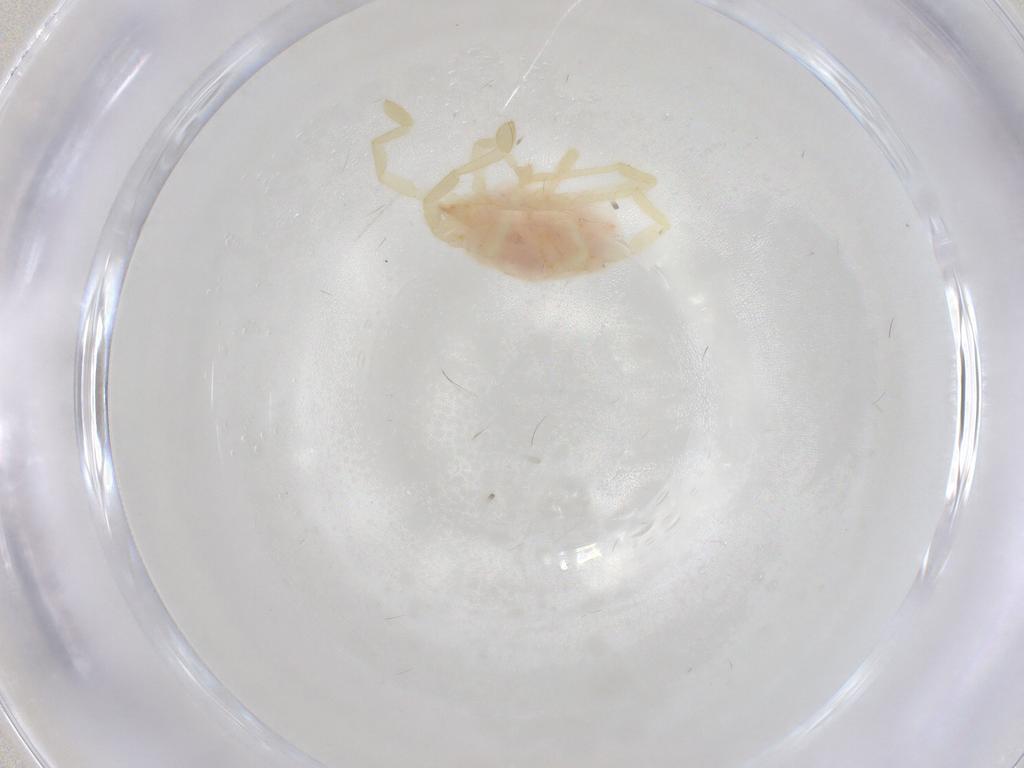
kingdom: Animalia
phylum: Arthropoda
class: Arachnida
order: Trombidiformes
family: Erythraeidae
